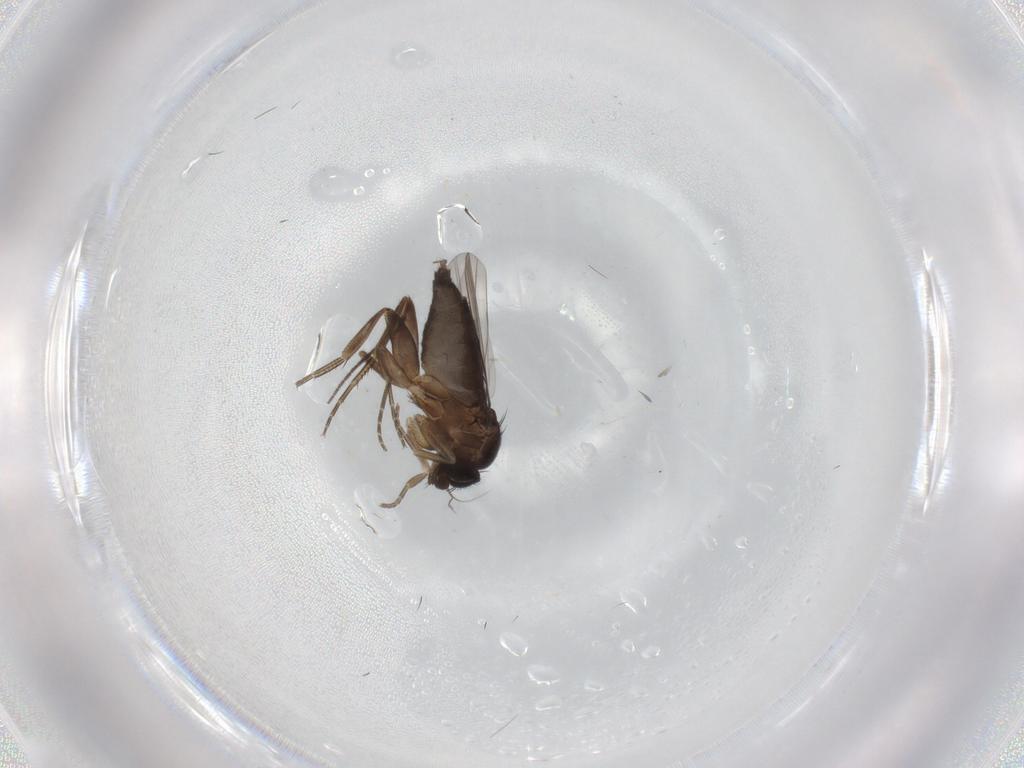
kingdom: Animalia
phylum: Arthropoda
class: Insecta
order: Diptera
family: Phoridae
